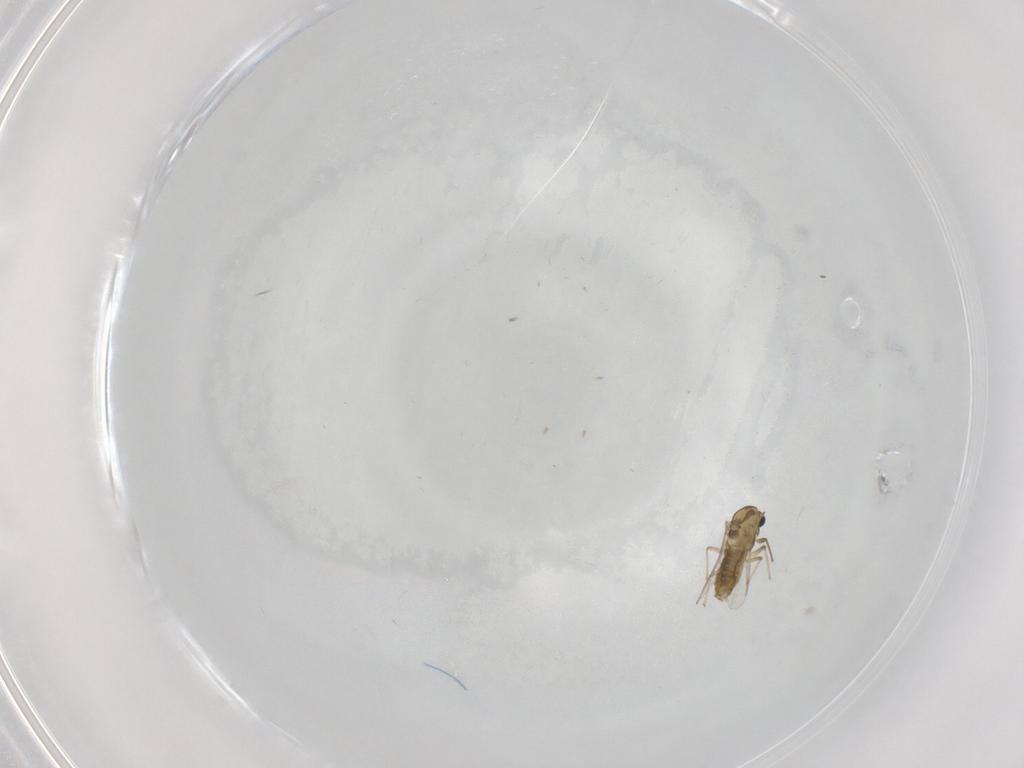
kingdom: Animalia
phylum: Arthropoda
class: Insecta
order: Diptera
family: Chironomidae
